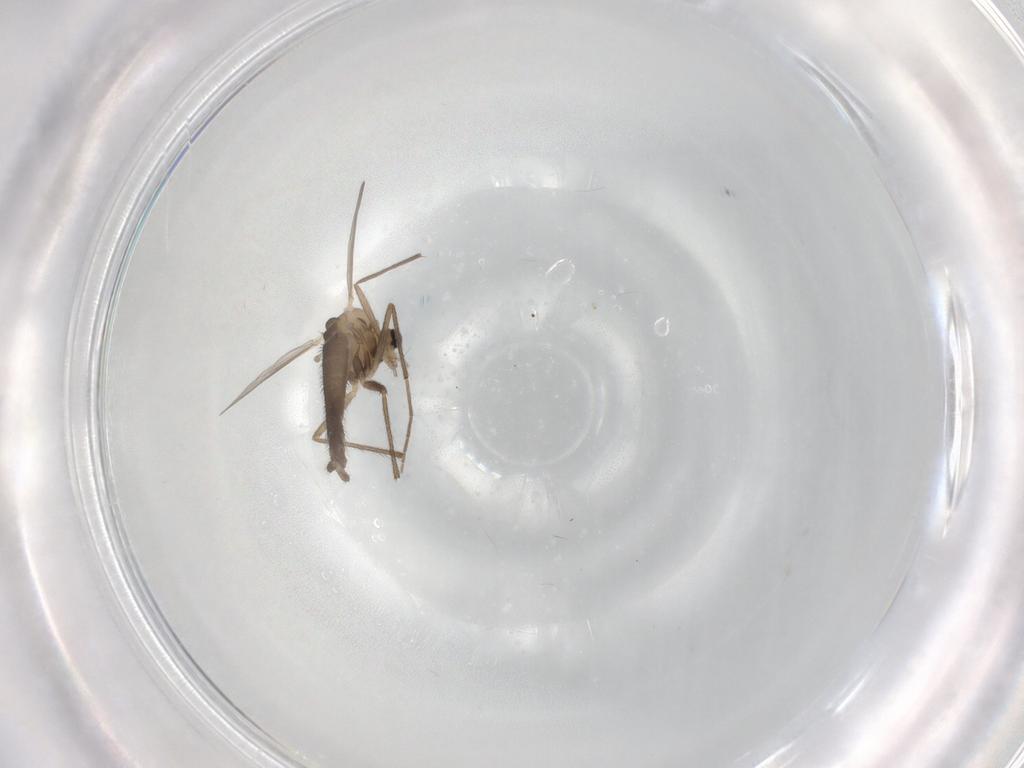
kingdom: Animalia
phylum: Arthropoda
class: Insecta
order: Diptera
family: Chironomidae
